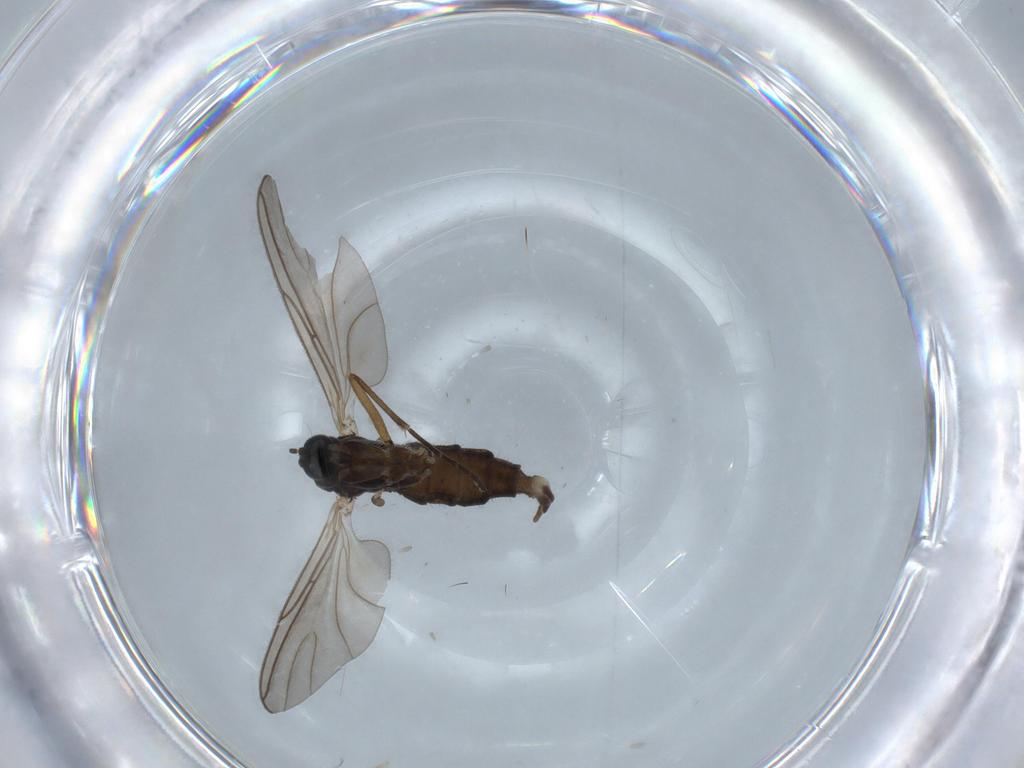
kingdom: Animalia
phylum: Arthropoda
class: Insecta
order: Diptera
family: Sciaridae
